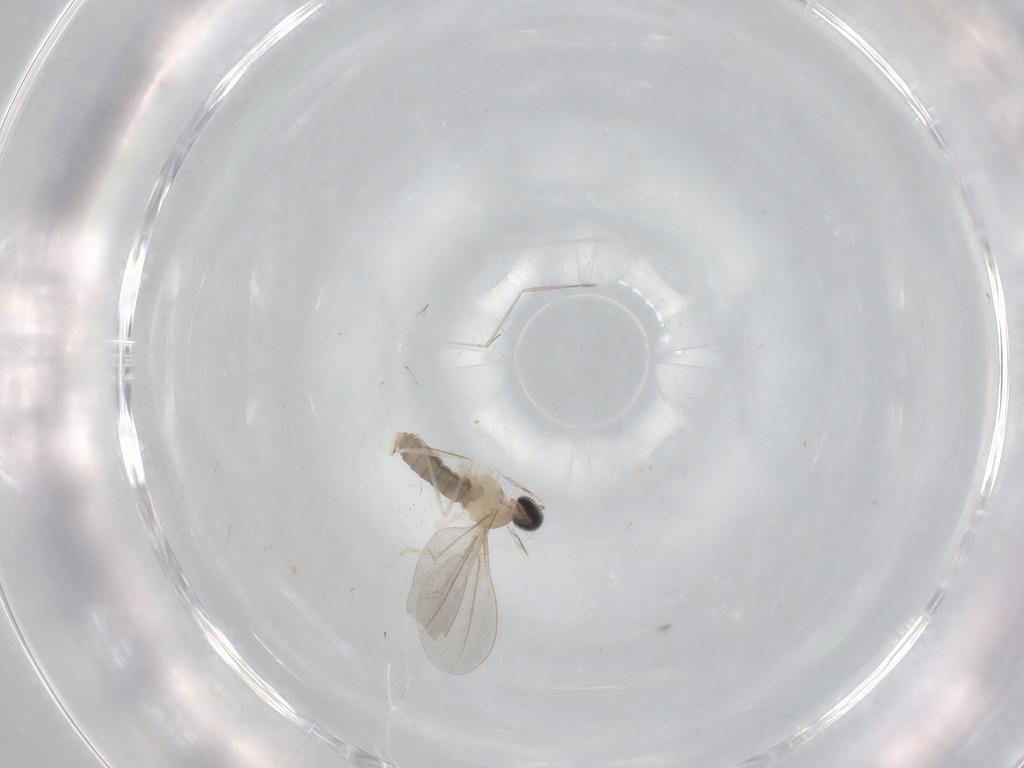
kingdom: Animalia
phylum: Arthropoda
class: Insecta
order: Diptera
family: Cecidomyiidae
